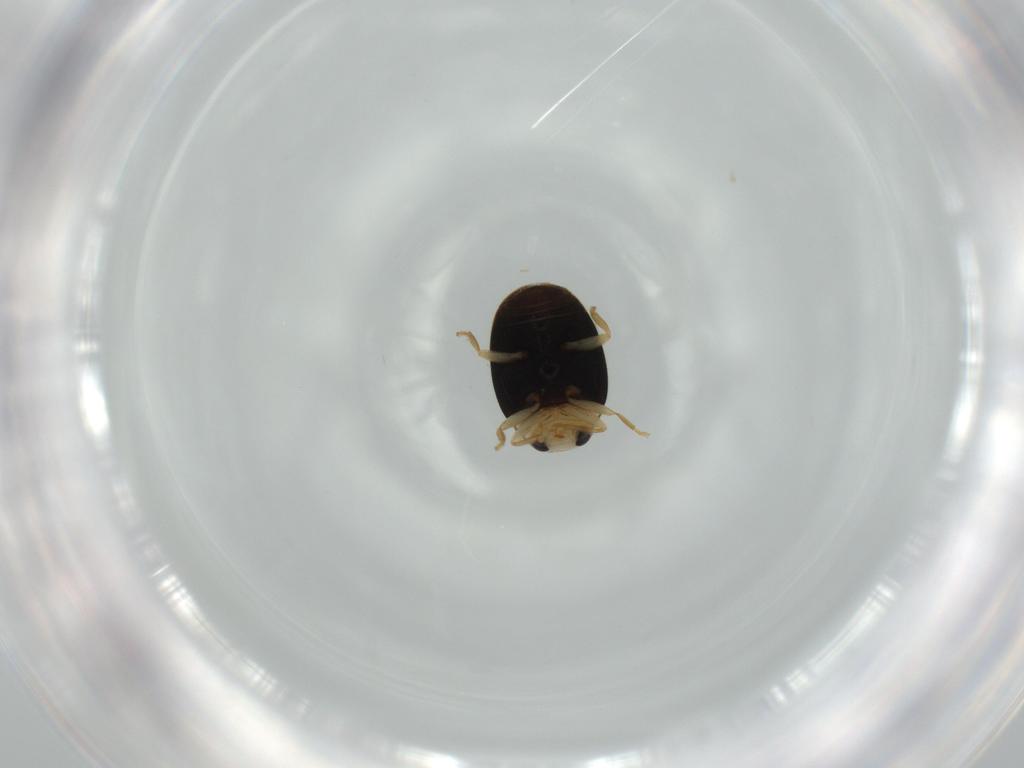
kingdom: Animalia
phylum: Arthropoda
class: Insecta
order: Coleoptera
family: Coccinellidae
